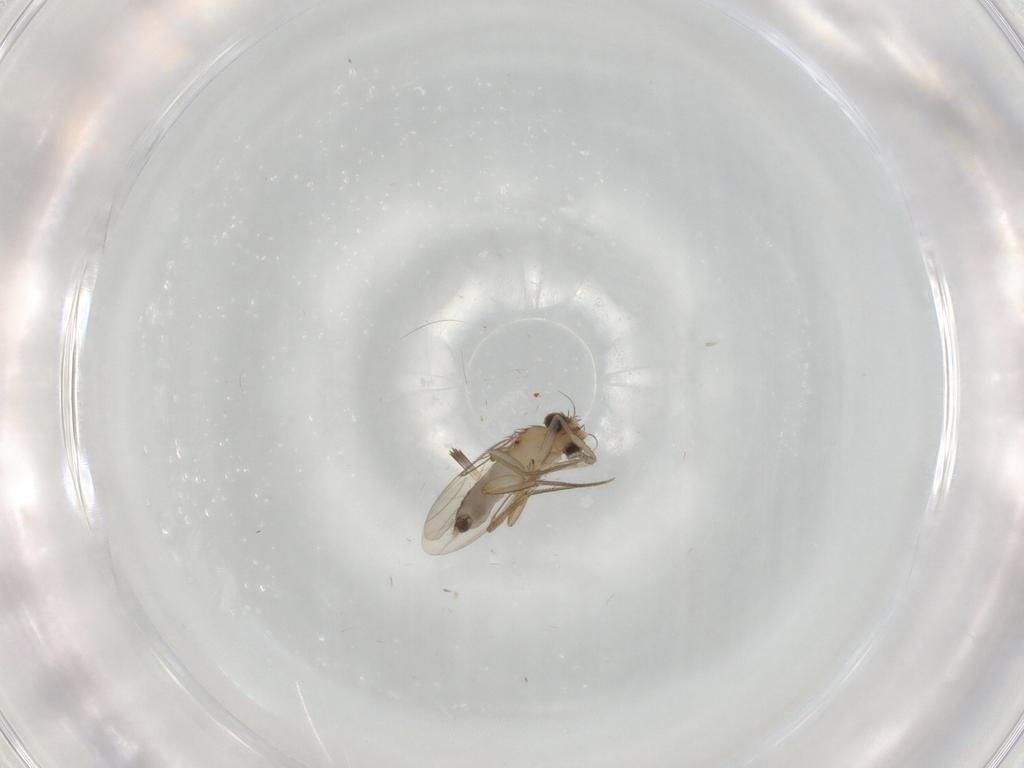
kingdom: Animalia
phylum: Arthropoda
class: Insecta
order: Diptera
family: Phoridae
